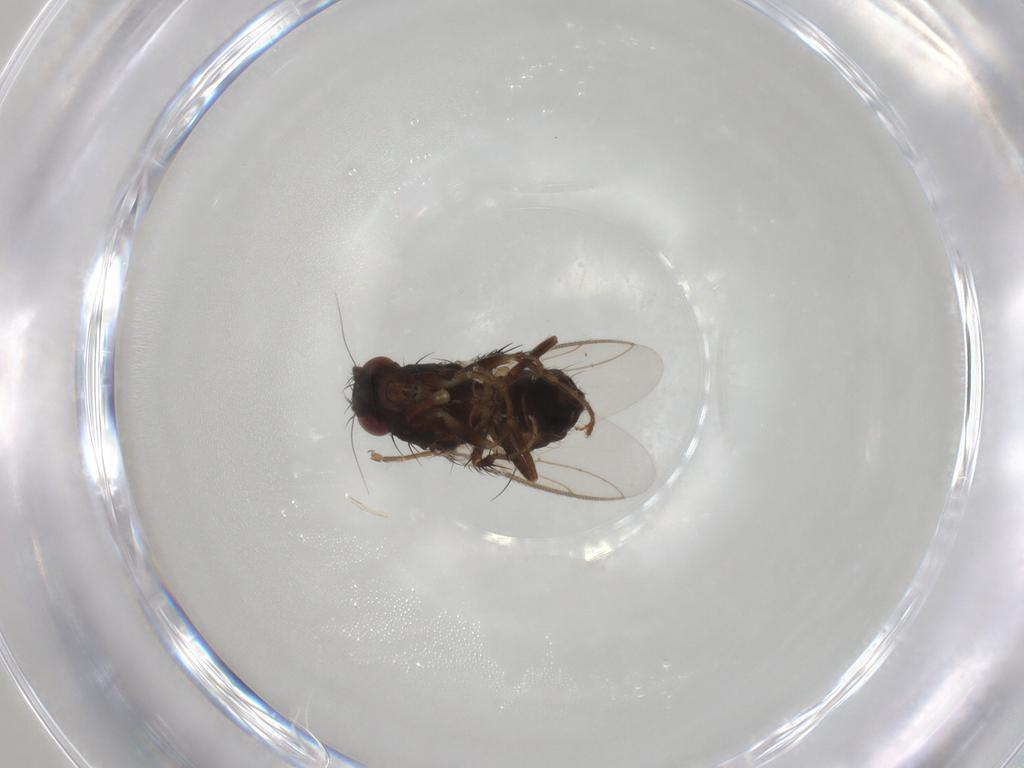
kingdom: Animalia
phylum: Arthropoda
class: Insecta
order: Diptera
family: Sphaeroceridae
